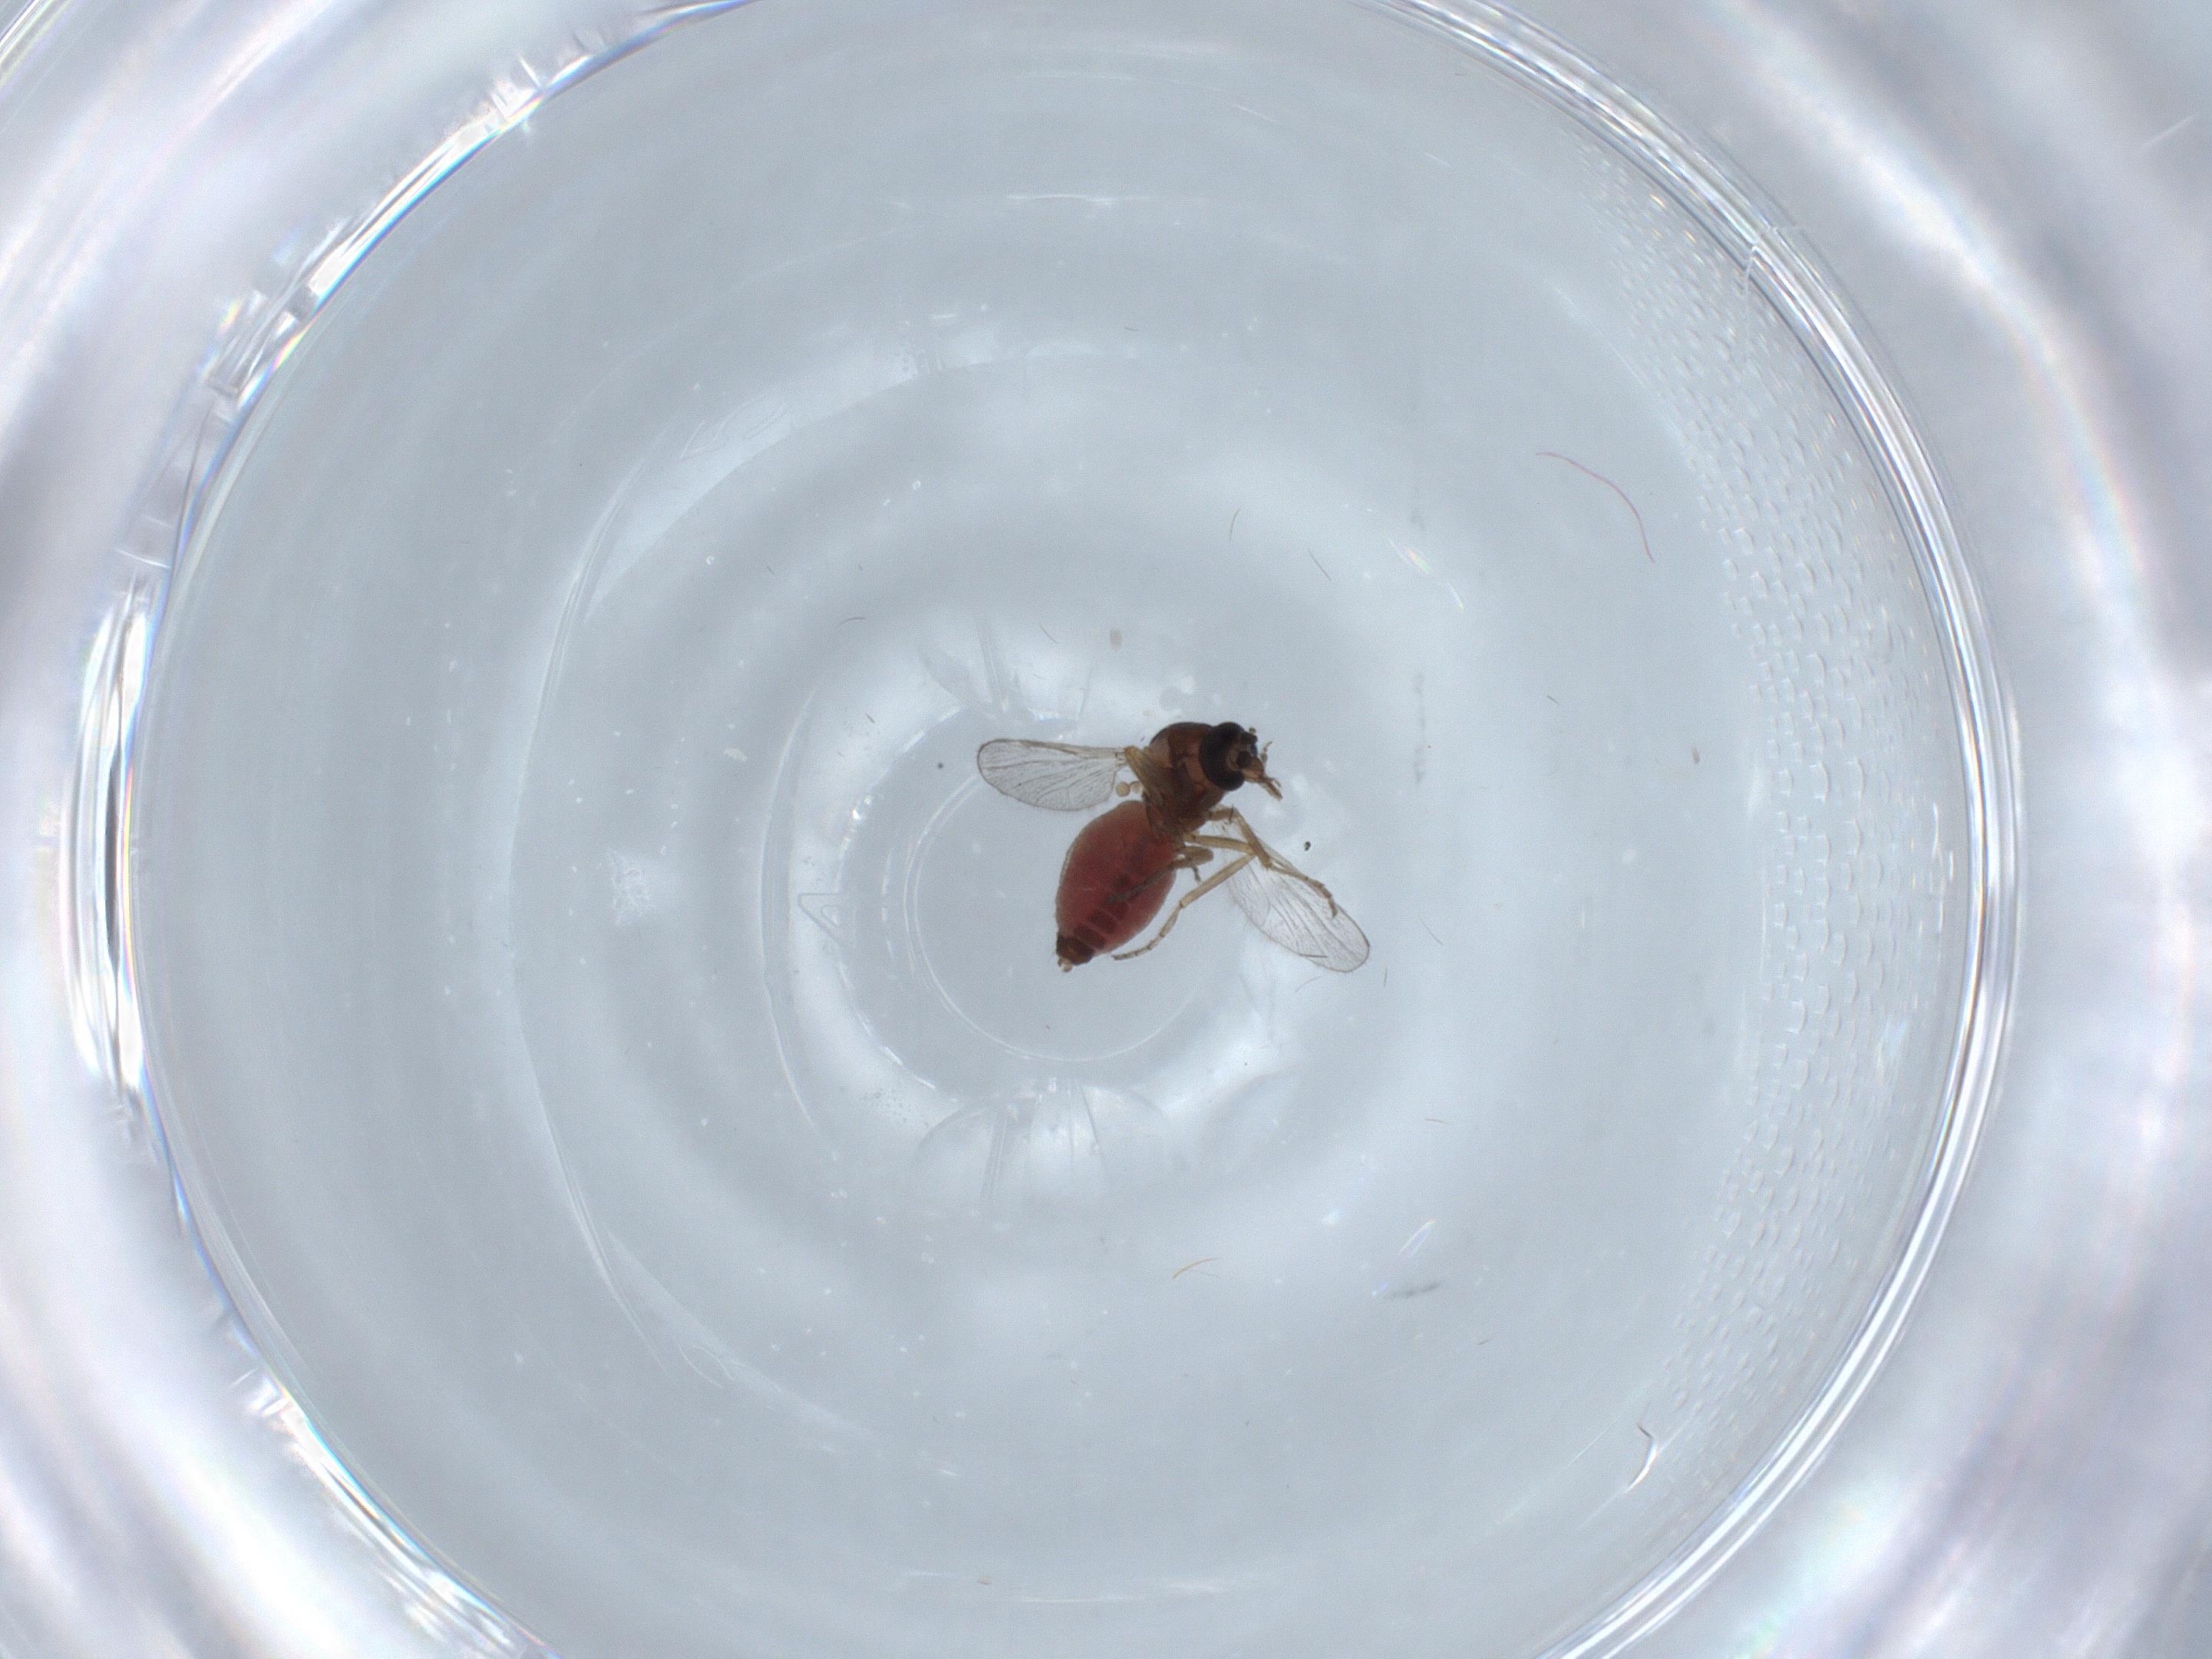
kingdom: Animalia
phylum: Arthropoda
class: Insecta
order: Diptera
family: Ceratopogonidae
